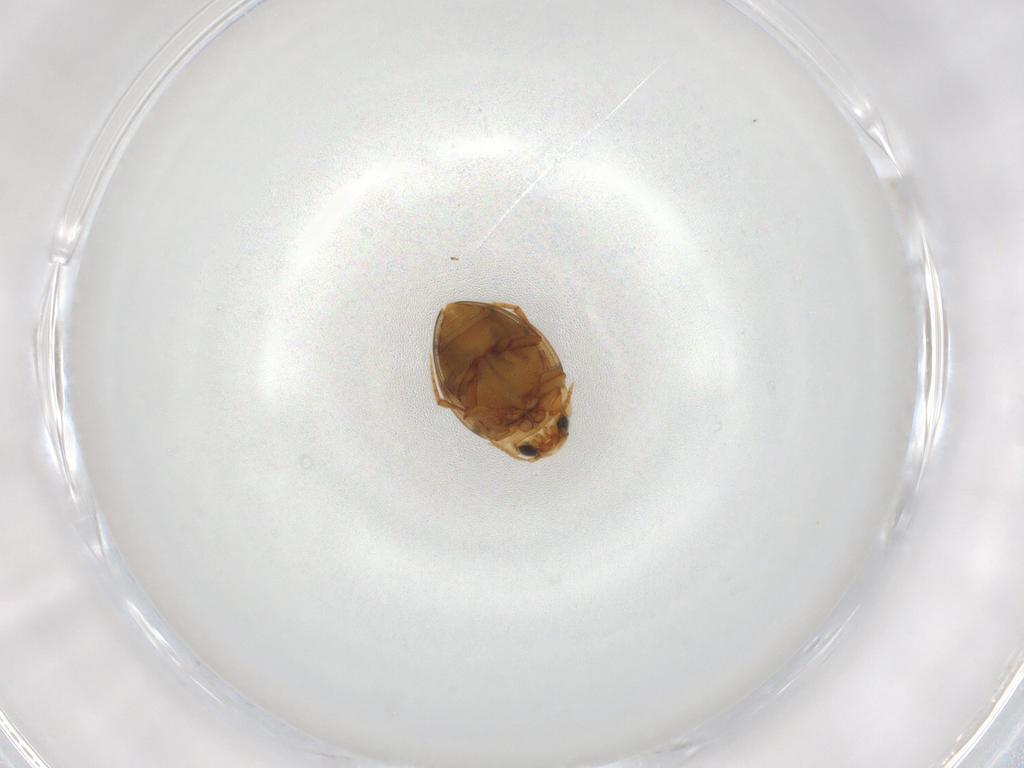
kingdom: Animalia
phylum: Arthropoda
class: Insecta
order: Coleoptera
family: Dytiscidae
